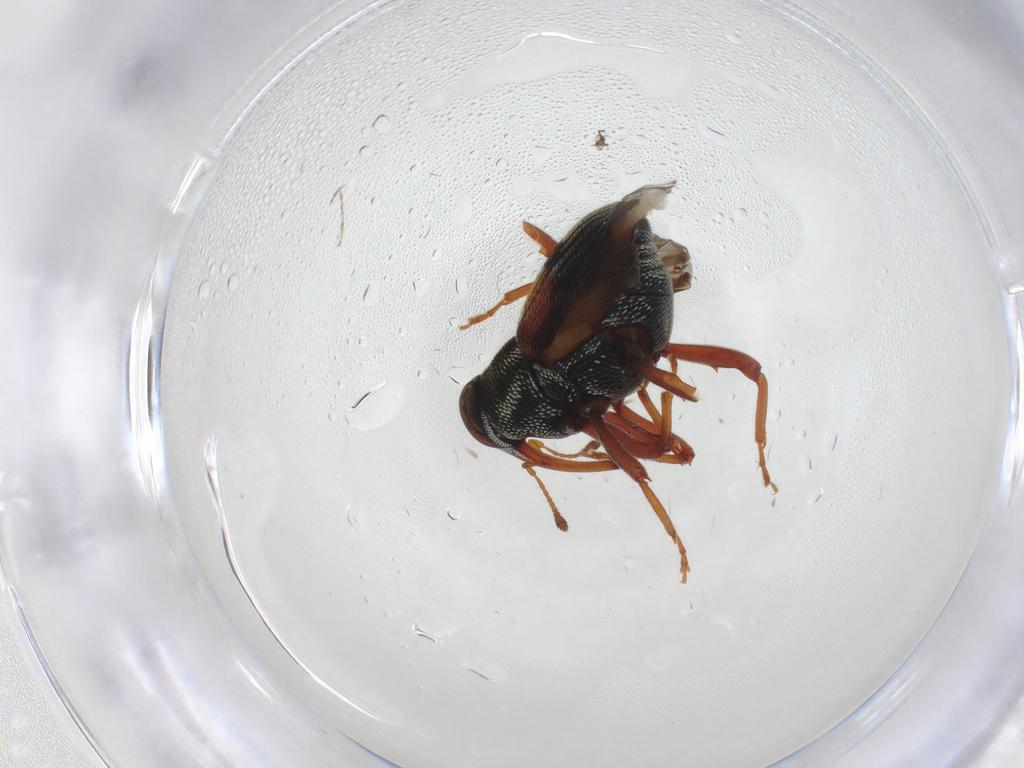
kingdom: Animalia
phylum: Arthropoda
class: Insecta
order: Coleoptera
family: Curculionidae
